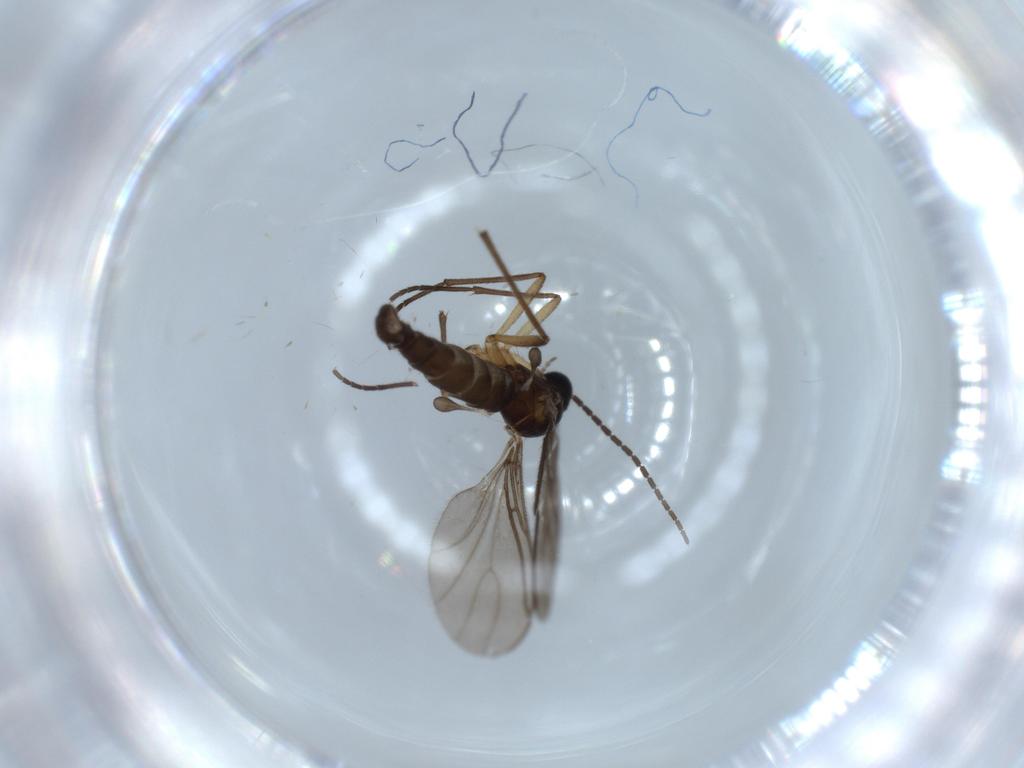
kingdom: Animalia
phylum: Arthropoda
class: Insecta
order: Diptera
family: Sciaridae
